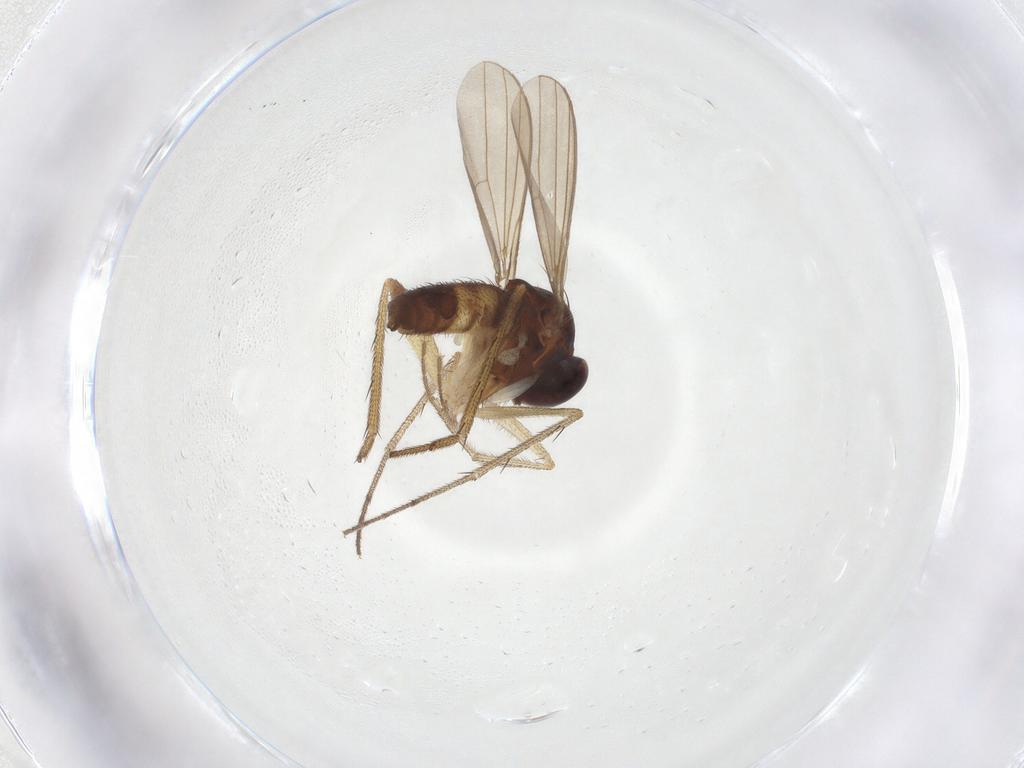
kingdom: Animalia
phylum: Arthropoda
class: Insecta
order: Diptera
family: Dolichopodidae
